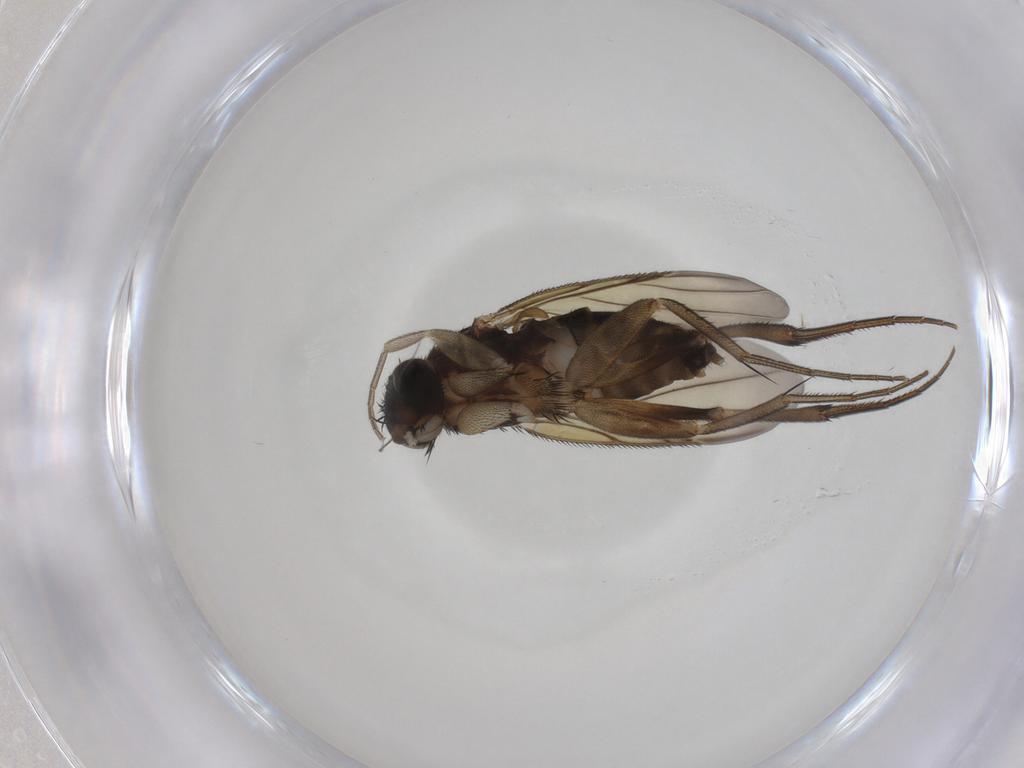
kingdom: Animalia
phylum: Arthropoda
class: Insecta
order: Diptera
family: Phoridae
